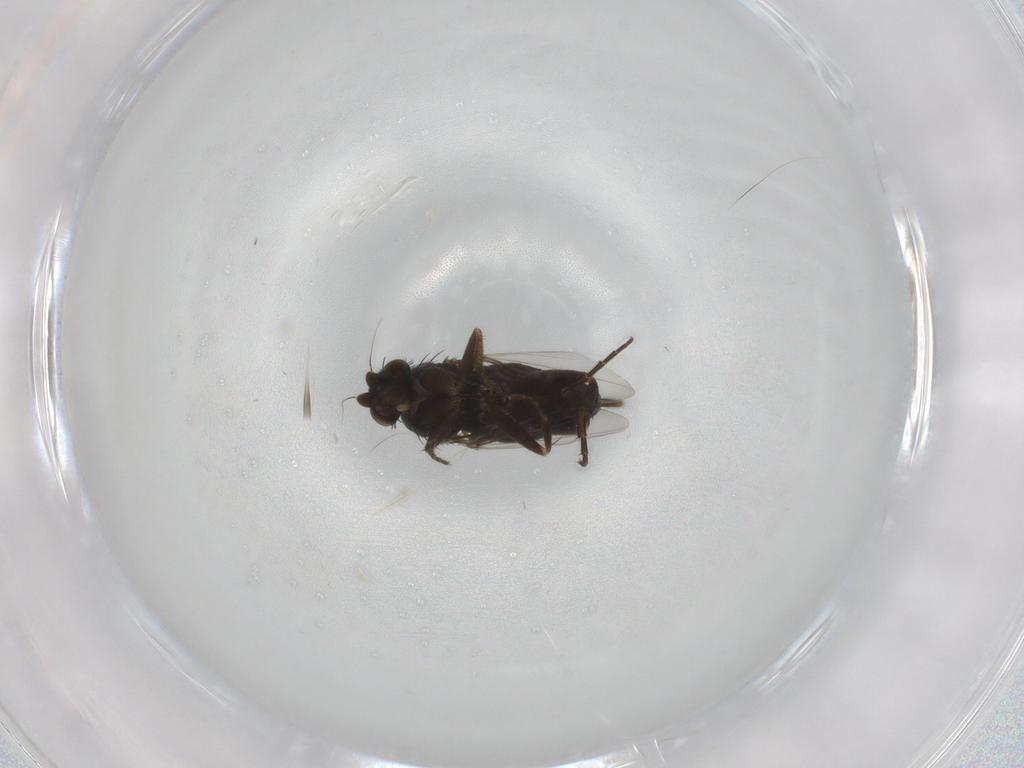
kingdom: Animalia
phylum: Arthropoda
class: Insecta
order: Diptera
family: Phoridae
